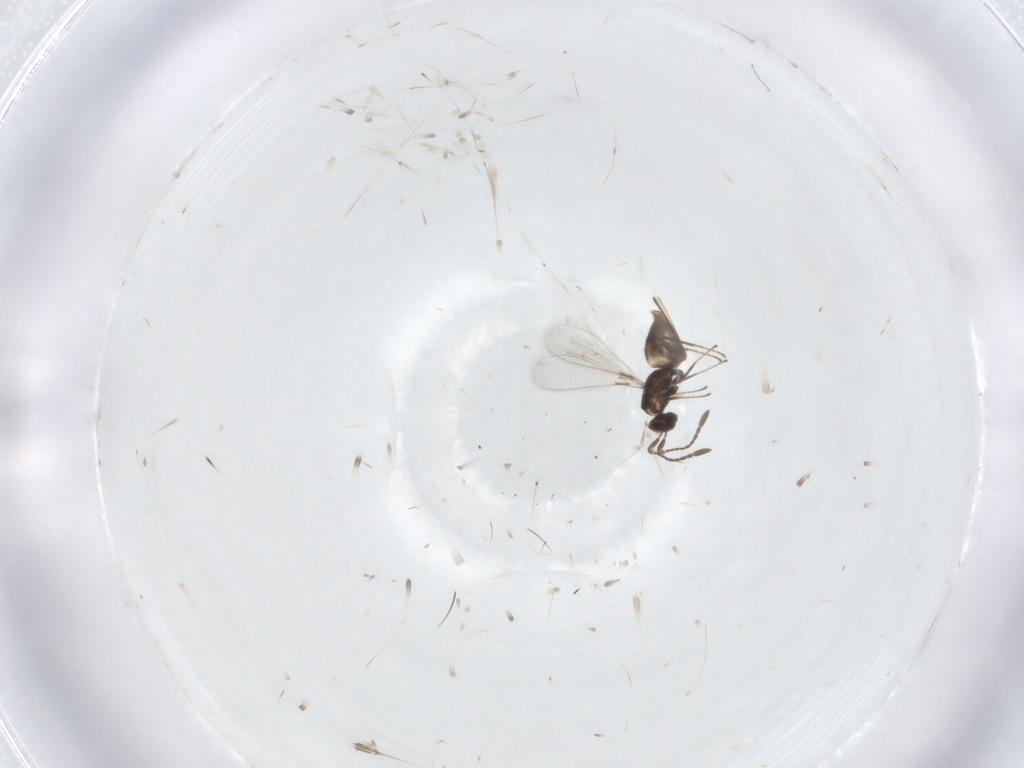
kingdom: Animalia
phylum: Arthropoda
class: Insecta
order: Hymenoptera
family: Mymaridae
